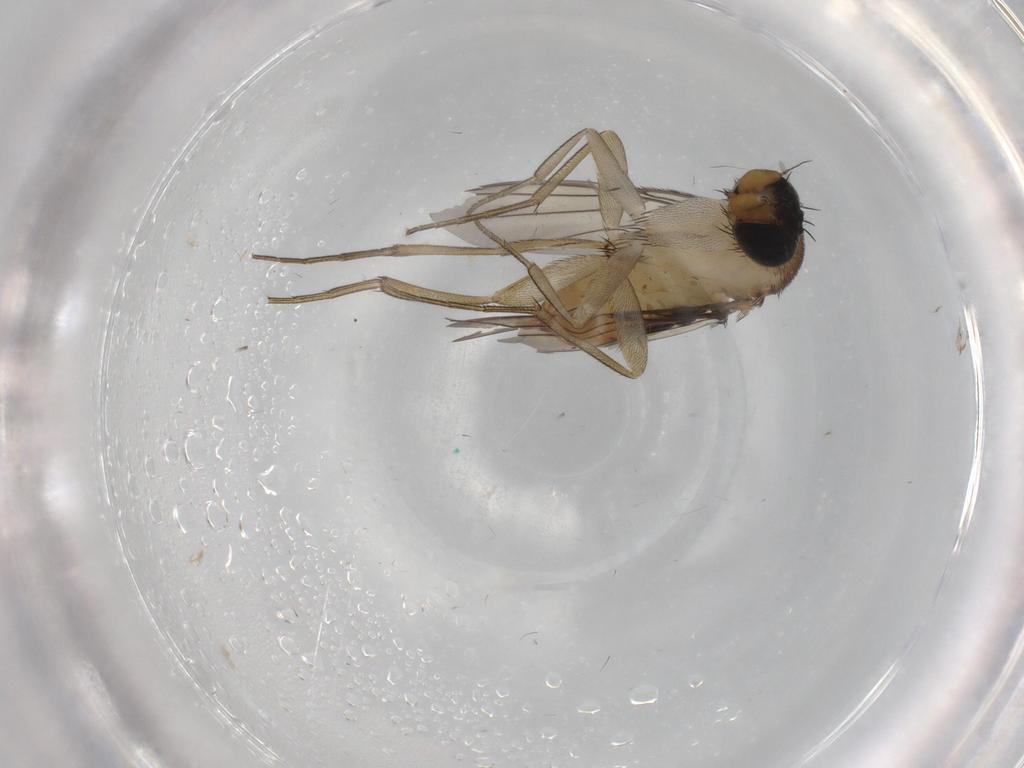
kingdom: Animalia
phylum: Arthropoda
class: Insecta
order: Diptera
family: Phoridae
